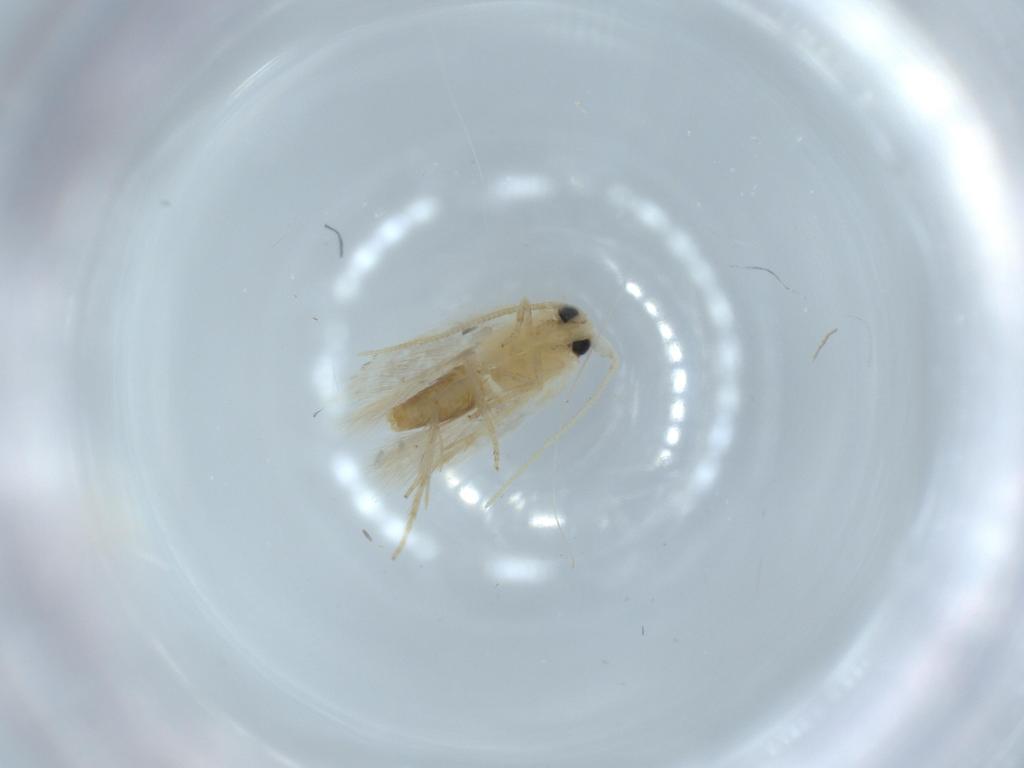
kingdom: Animalia
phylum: Arthropoda
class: Insecta
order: Lepidoptera
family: Opostegidae
